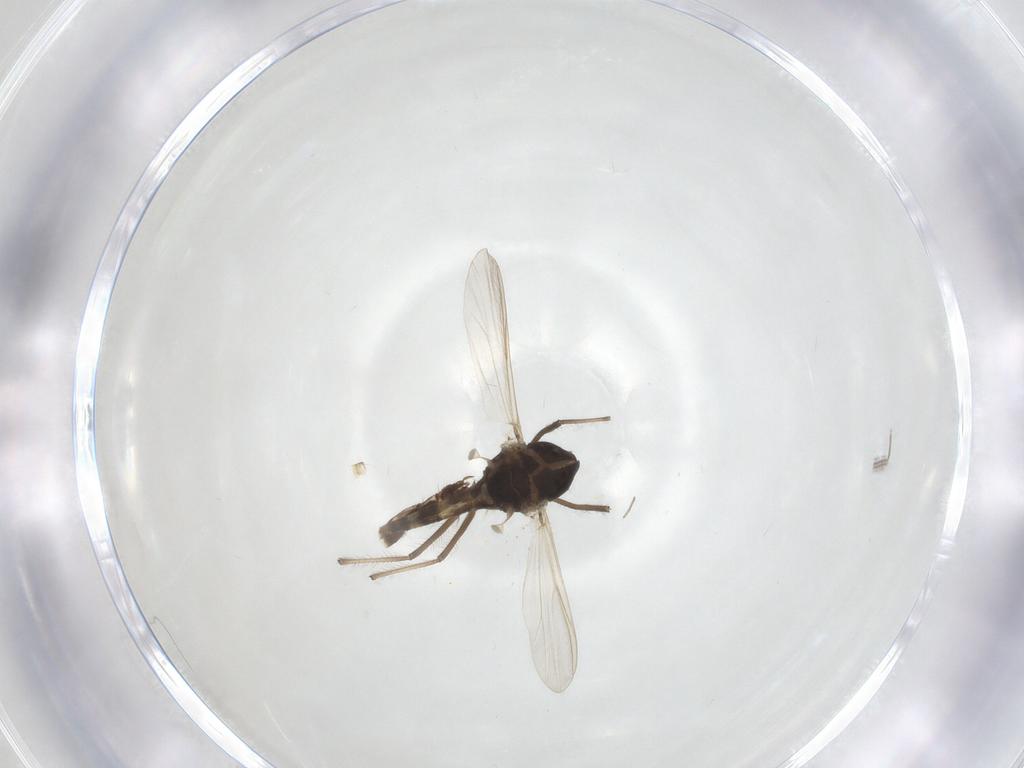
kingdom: Animalia
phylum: Arthropoda
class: Insecta
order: Diptera
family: Chironomidae
